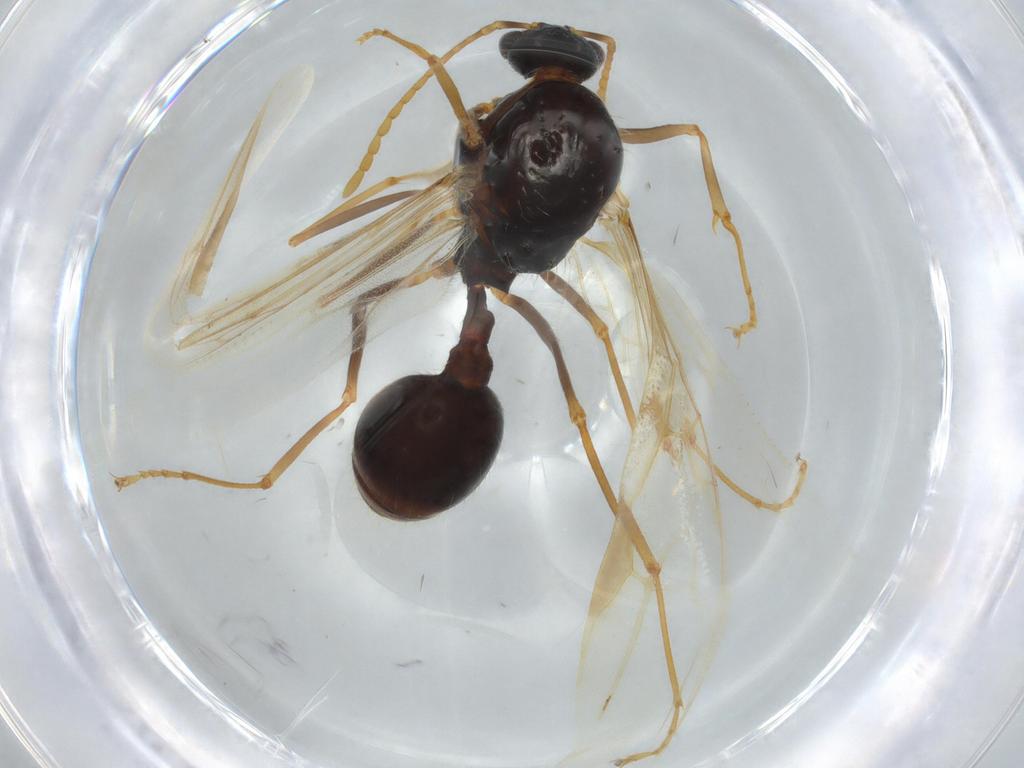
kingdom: Animalia
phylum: Arthropoda
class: Insecta
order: Hymenoptera
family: Formicidae
